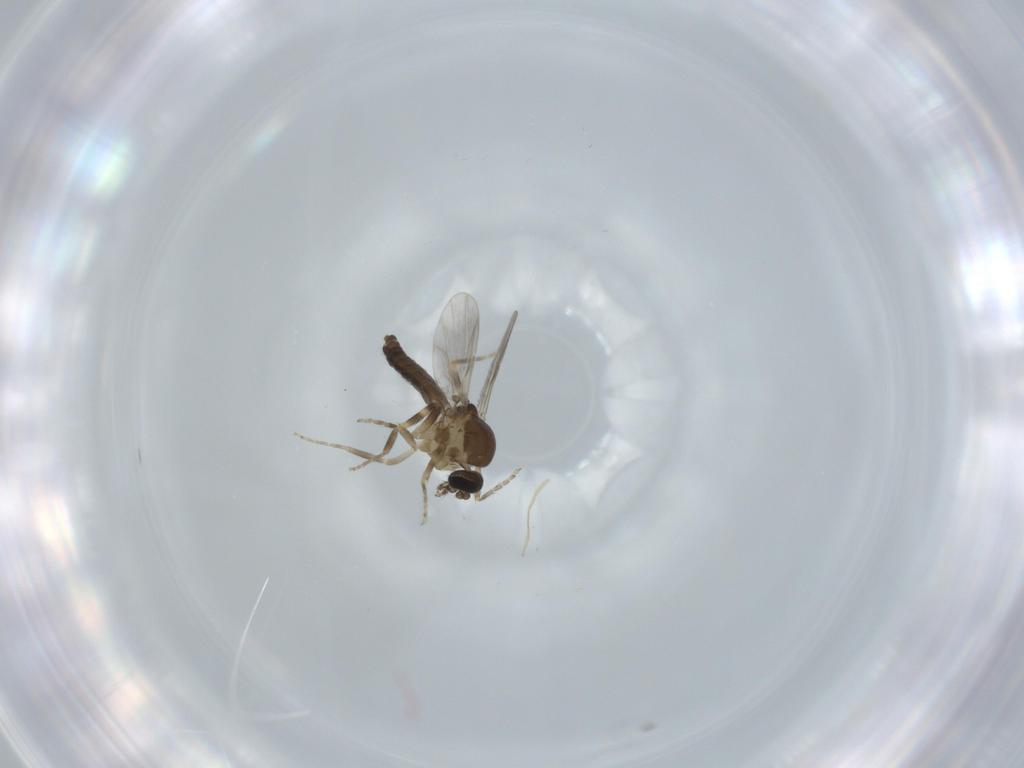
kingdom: Animalia
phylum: Arthropoda
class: Insecta
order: Diptera
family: Ceratopogonidae
